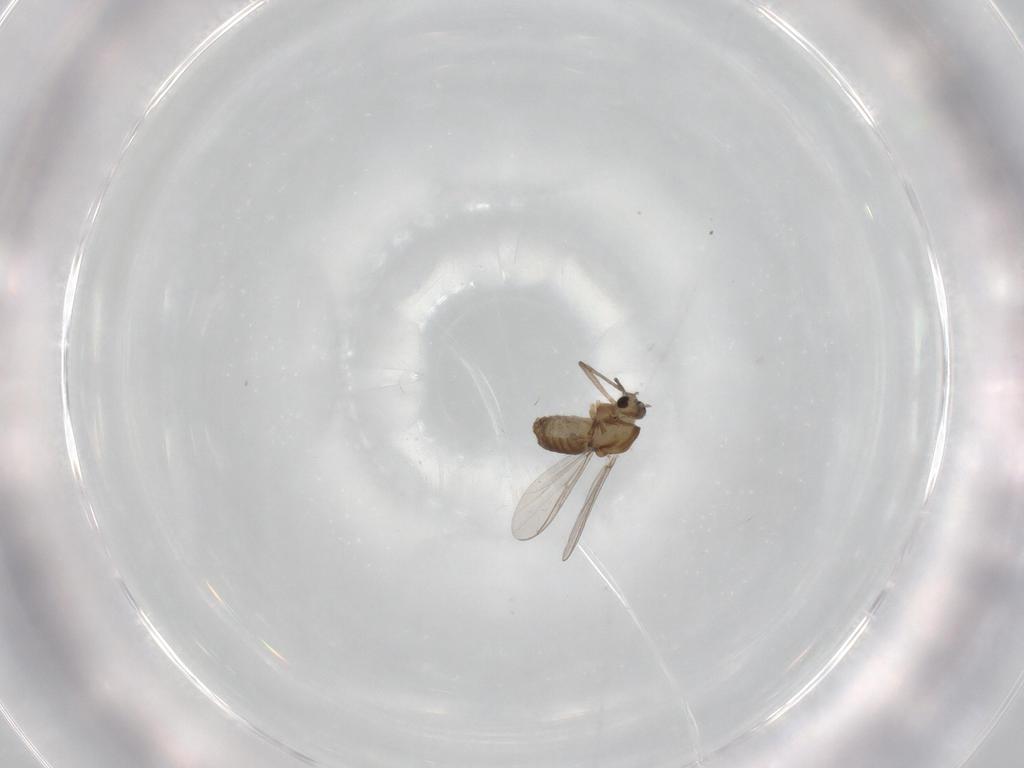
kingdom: Animalia
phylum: Arthropoda
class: Insecta
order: Diptera
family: Chironomidae
